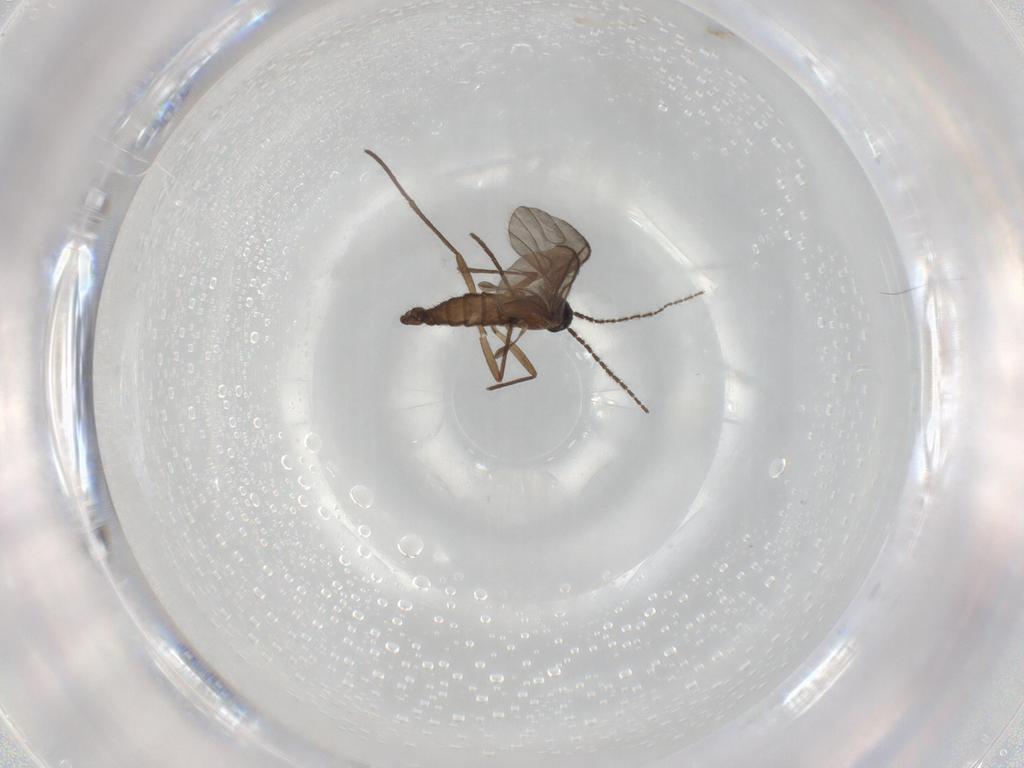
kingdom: Animalia
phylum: Arthropoda
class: Insecta
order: Diptera
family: Sciaridae
